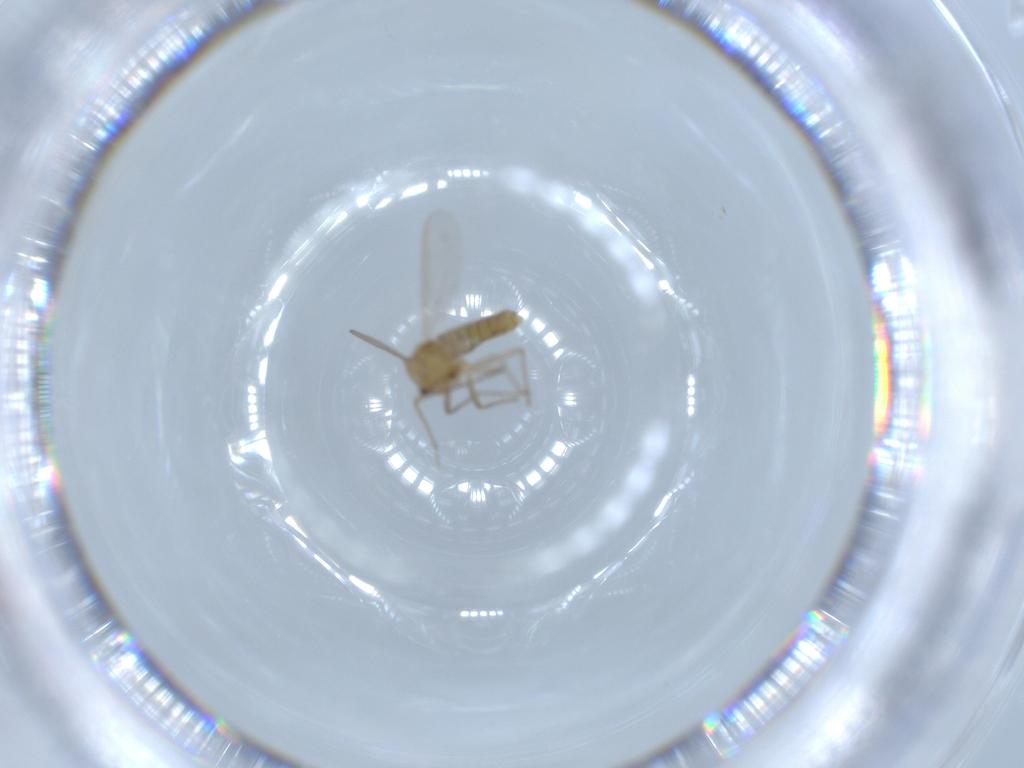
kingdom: Animalia
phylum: Arthropoda
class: Insecta
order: Diptera
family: Chironomidae
